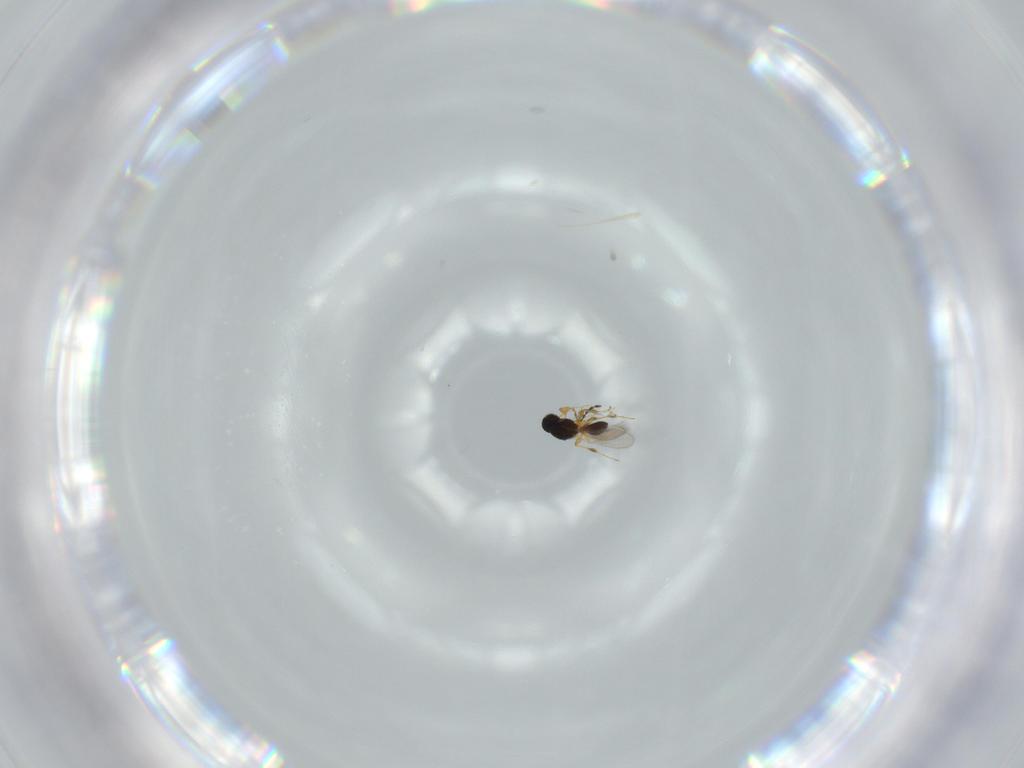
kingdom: Animalia
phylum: Arthropoda
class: Insecta
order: Hymenoptera
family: Platygastridae
